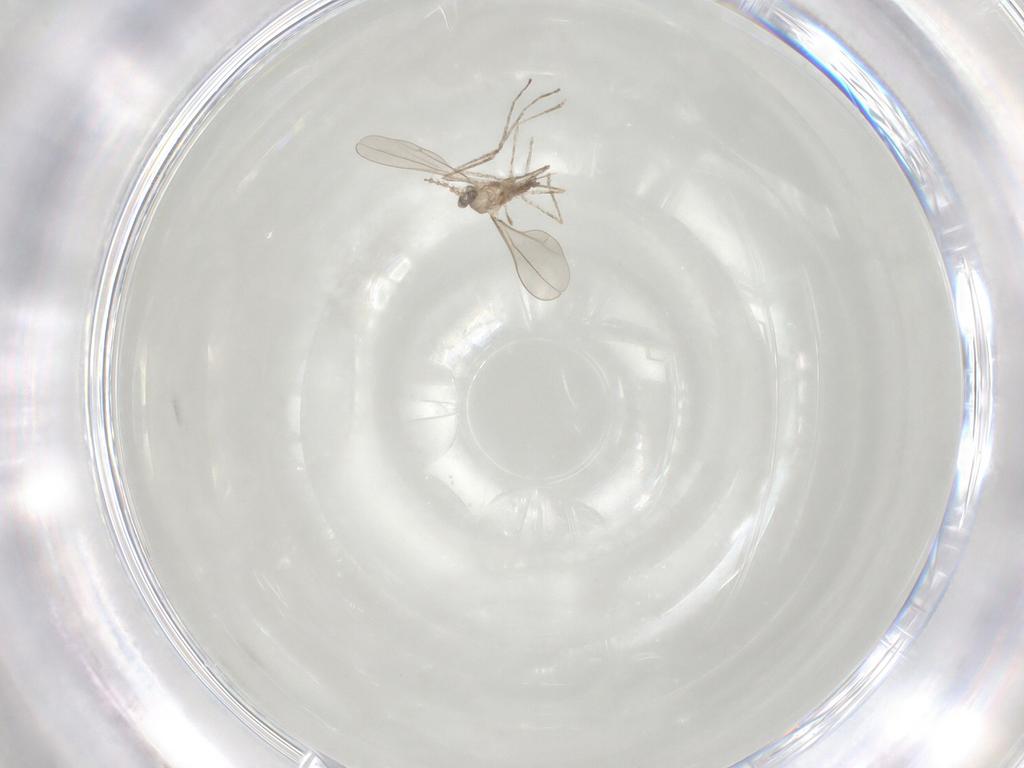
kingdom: Animalia
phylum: Arthropoda
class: Insecta
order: Diptera
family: Cecidomyiidae
